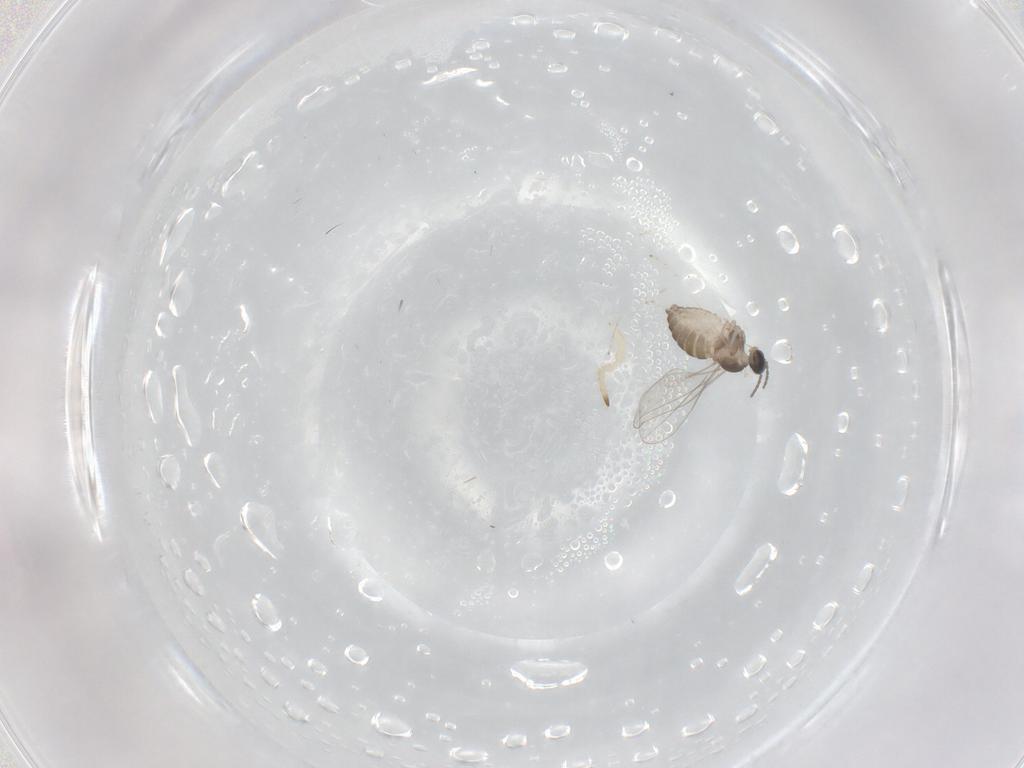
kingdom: Animalia
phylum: Arthropoda
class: Insecta
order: Diptera
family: Cecidomyiidae
